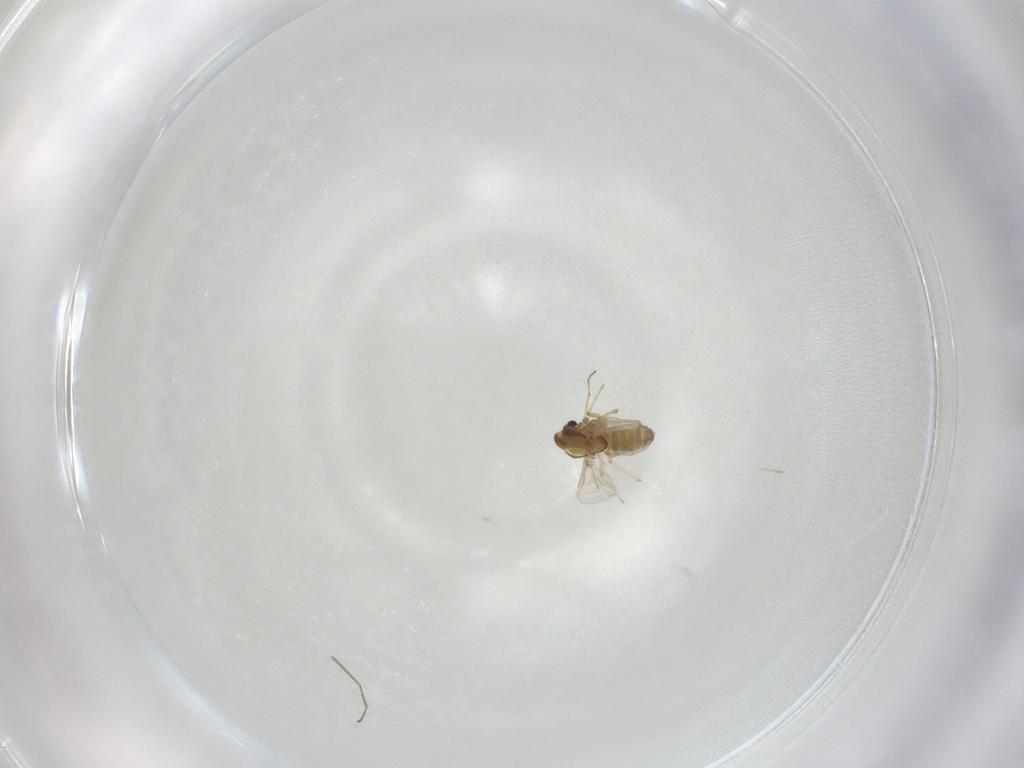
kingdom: Animalia
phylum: Arthropoda
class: Insecta
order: Diptera
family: Hybotidae
